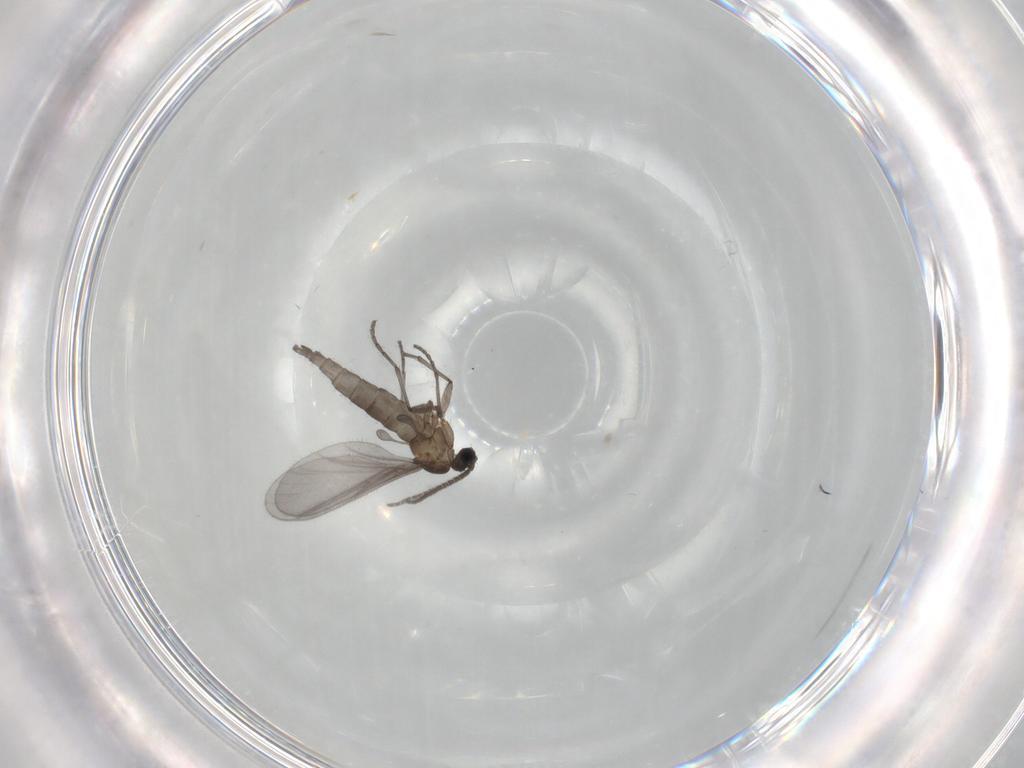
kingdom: Animalia
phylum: Arthropoda
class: Insecta
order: Diptera
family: Sciaridae
